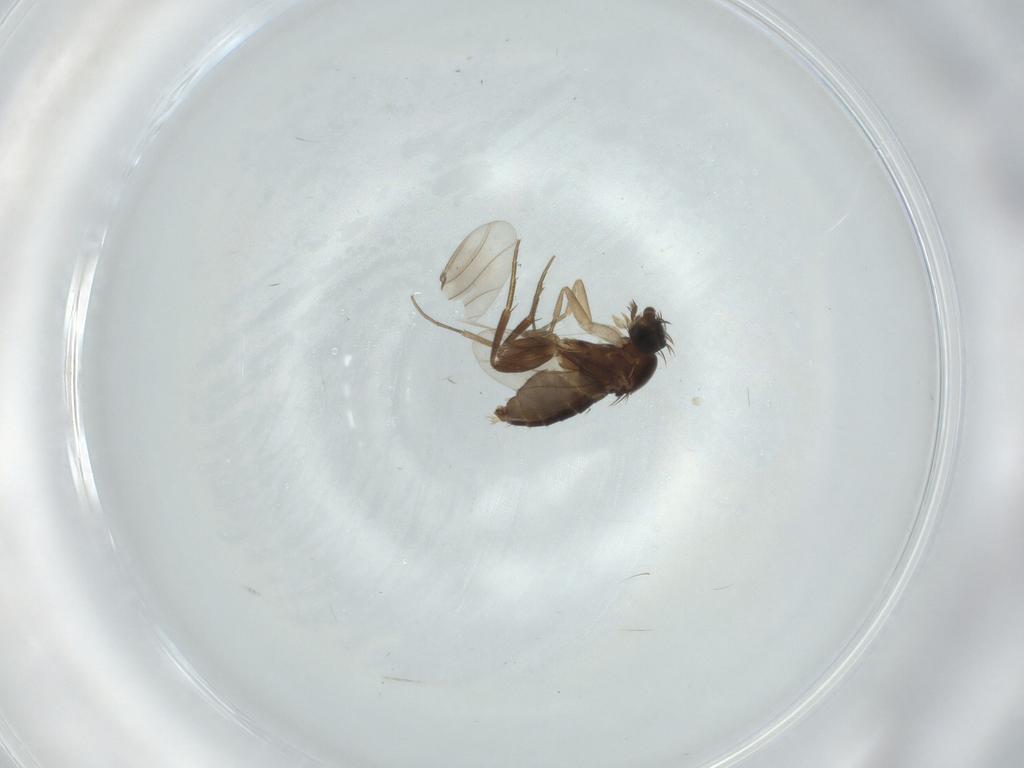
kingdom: Animalia
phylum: Arthropoda
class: Insecta
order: Diptera
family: Phoridae
